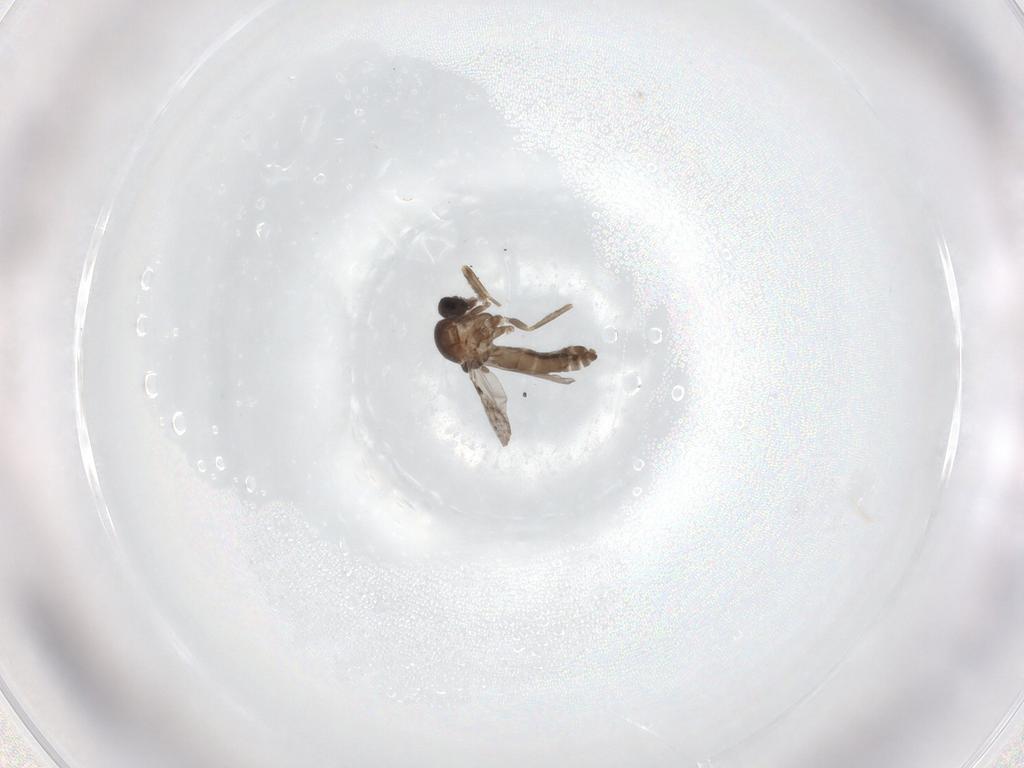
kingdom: Animalia
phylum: Arthropoda
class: Insecta
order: Diptera
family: Ceratopogonidae
